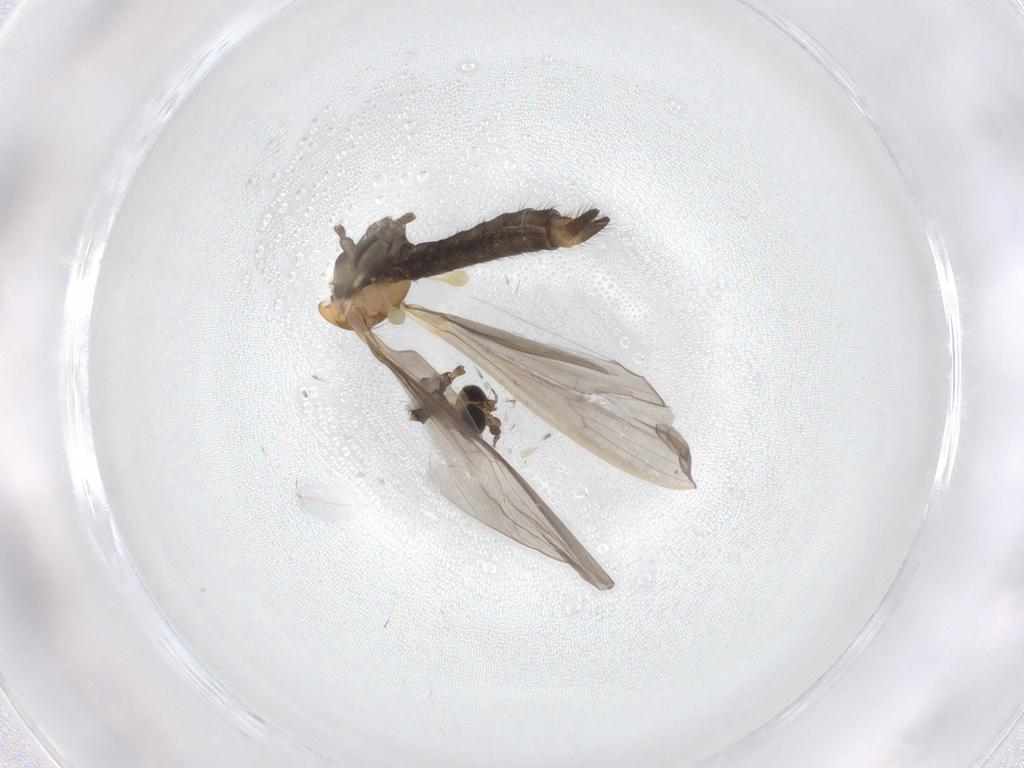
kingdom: Animalia
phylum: Arthropoda
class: Insecta
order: Diptera
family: Limoniidae
